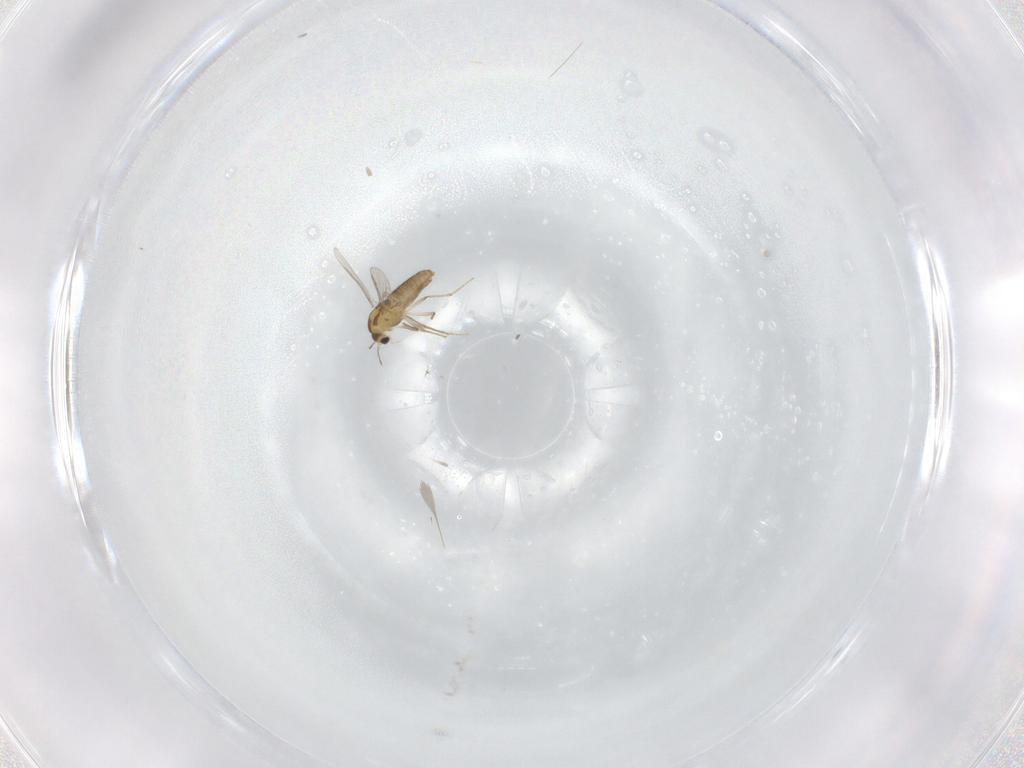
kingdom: Animalia
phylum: Arthropoda
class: Insecta
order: Diptera
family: Chironomidae
